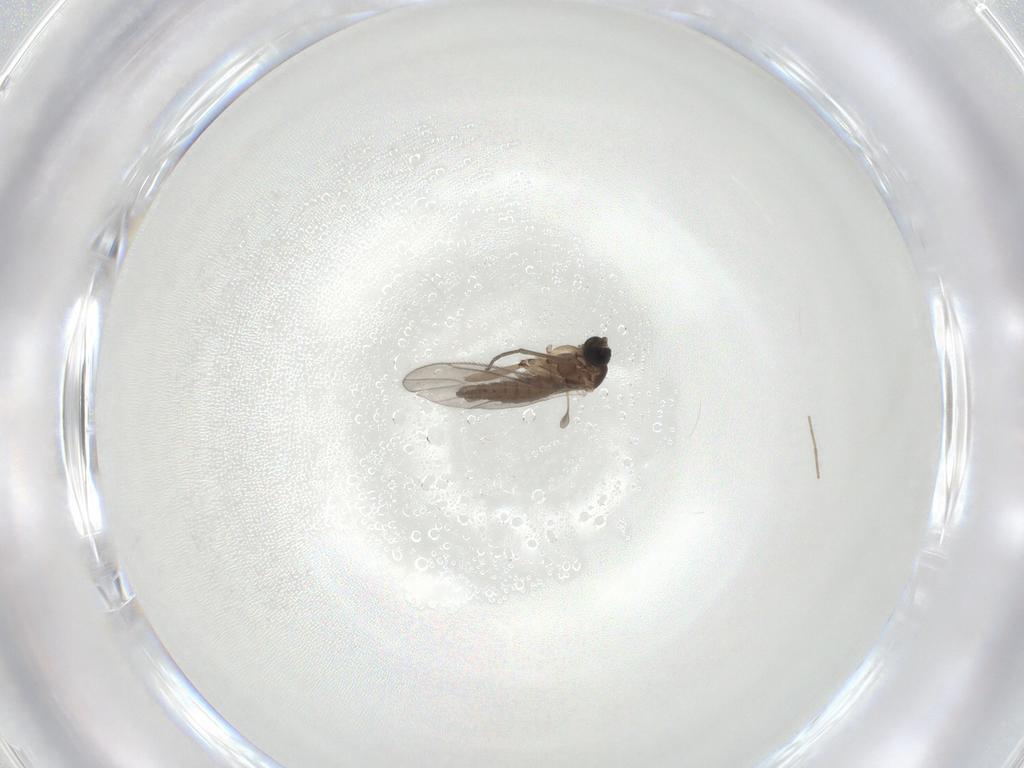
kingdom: Animalia
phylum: Arthropoda
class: Insecta
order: Diptera
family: Sciaridae
